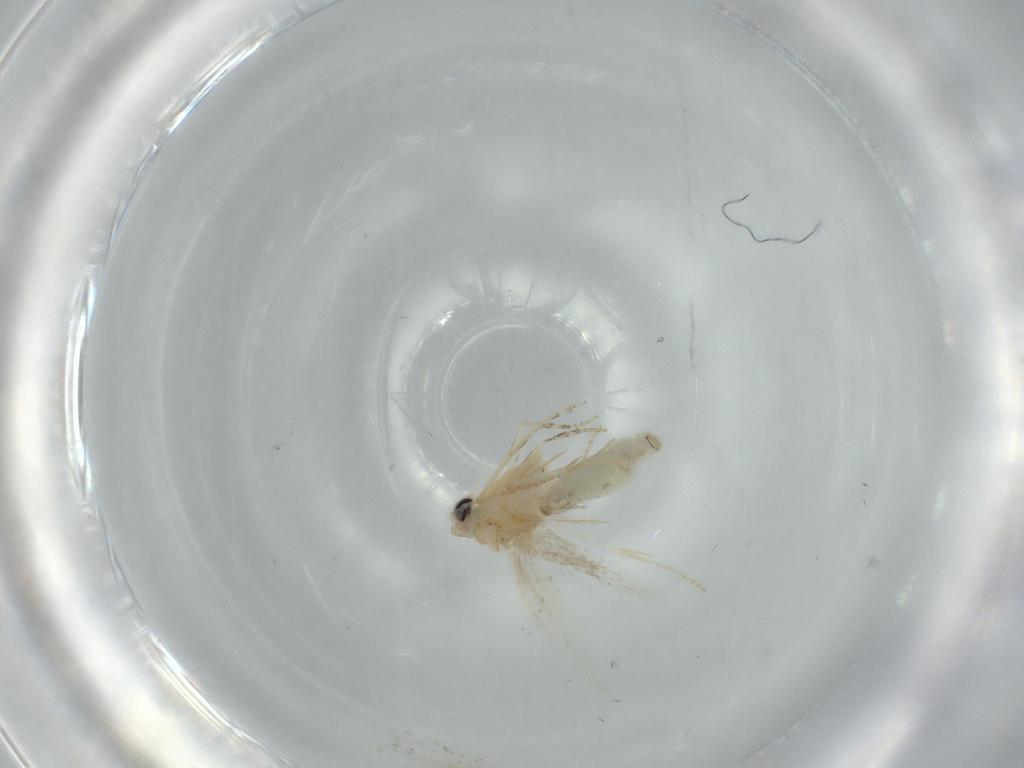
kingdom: Animalia
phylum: Arthropoda
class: Insecta
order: Lepidoptera
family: Bucculatricidae
